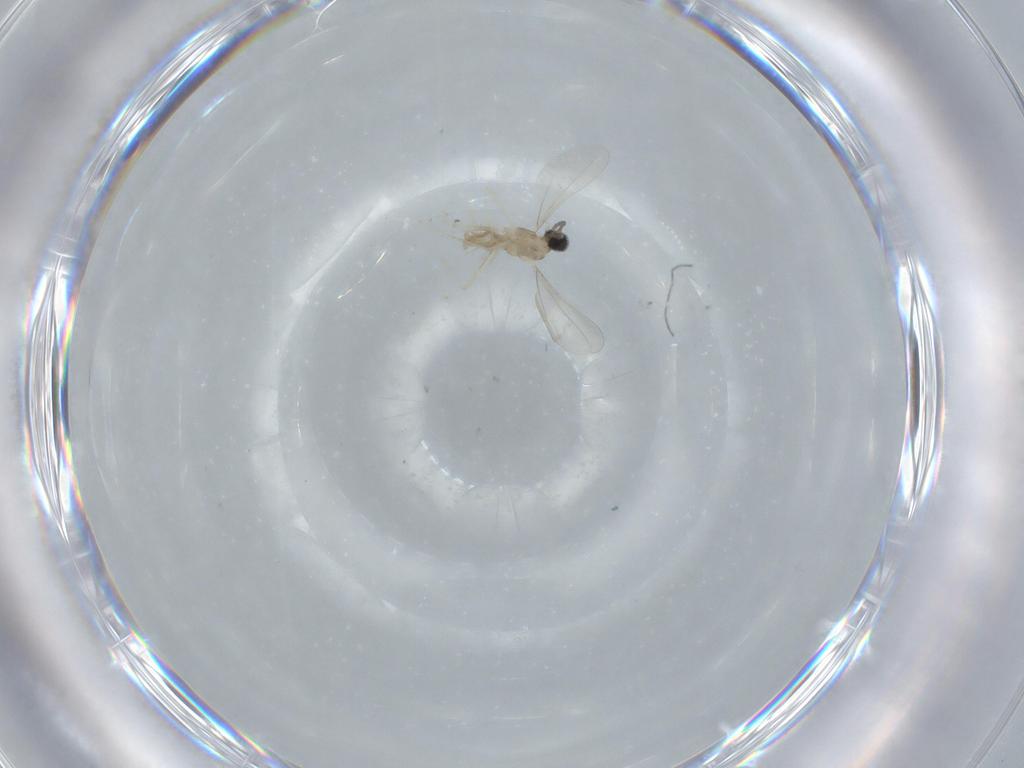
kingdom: Animalia
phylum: Arthropoda
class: Insecta
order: Diptera
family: Cecidomyiidae
